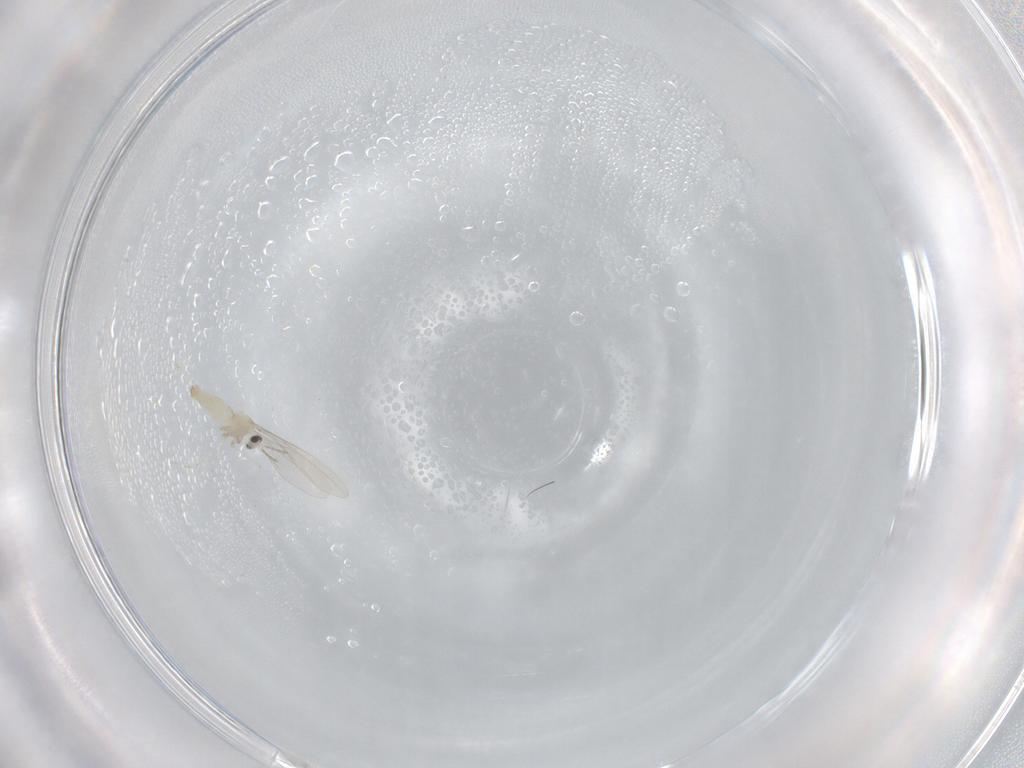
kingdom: Animalia
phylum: Arthropoda
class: Insecta
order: Diptera
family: Cecidomyiidae
